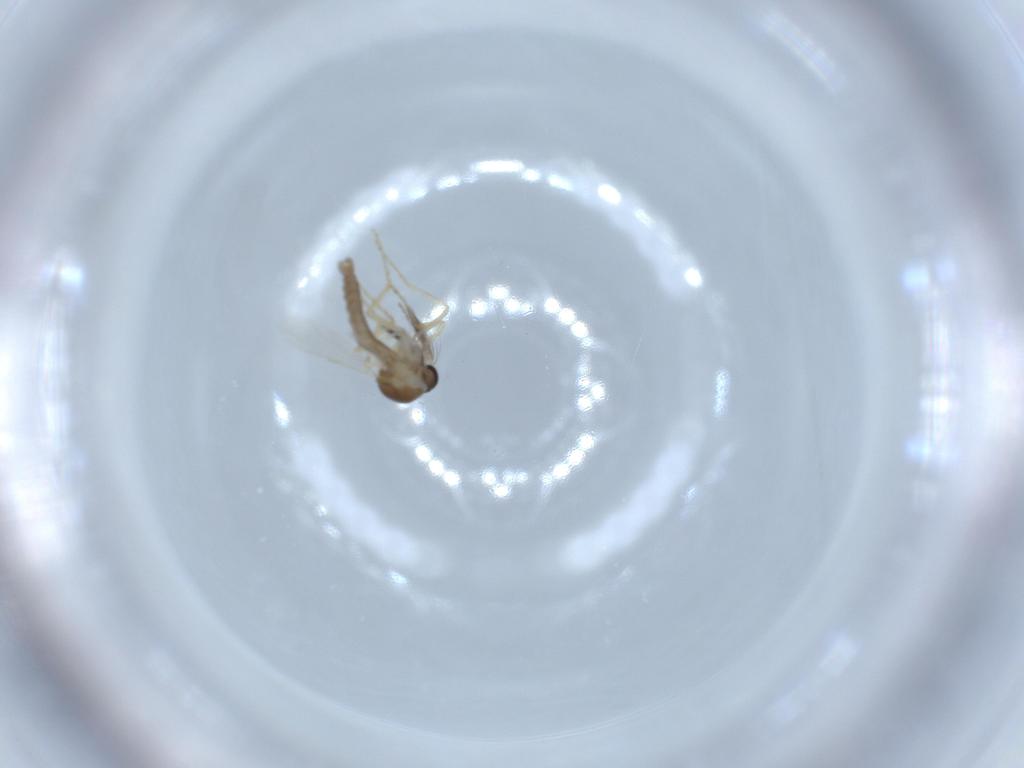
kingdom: Animalia
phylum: Arthropoda
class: Insecta
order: Diptera
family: Ceratopogonidae
